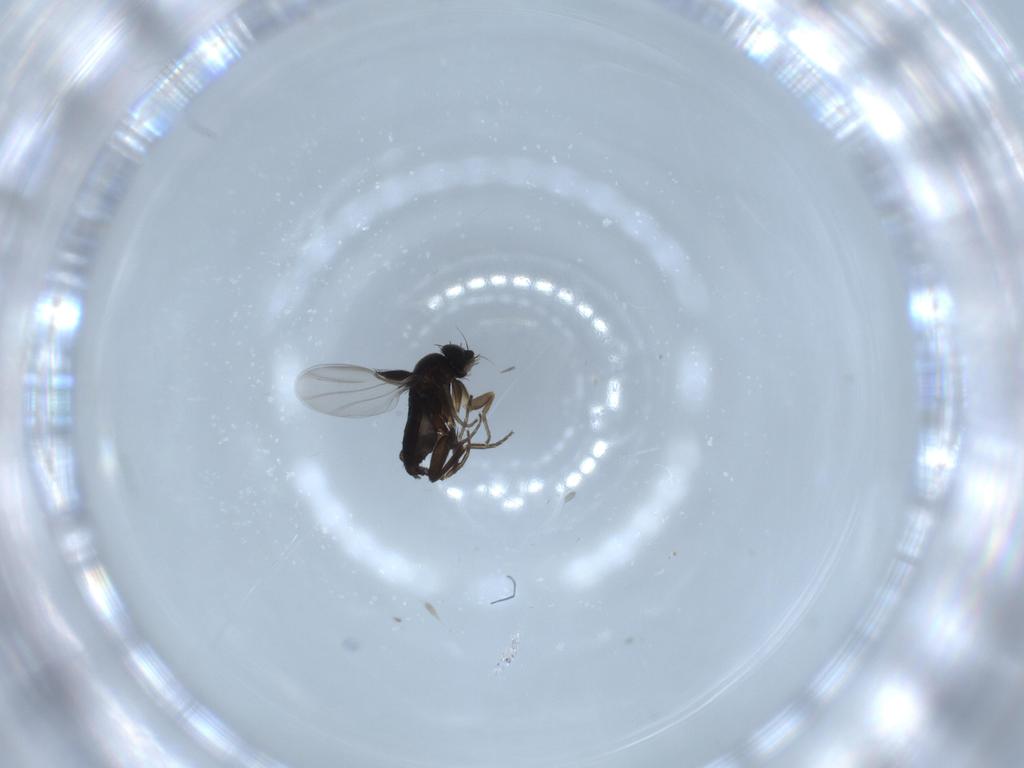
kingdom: Animalia
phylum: Arthropoda
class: Insecta
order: Diptera
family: Phoridae
